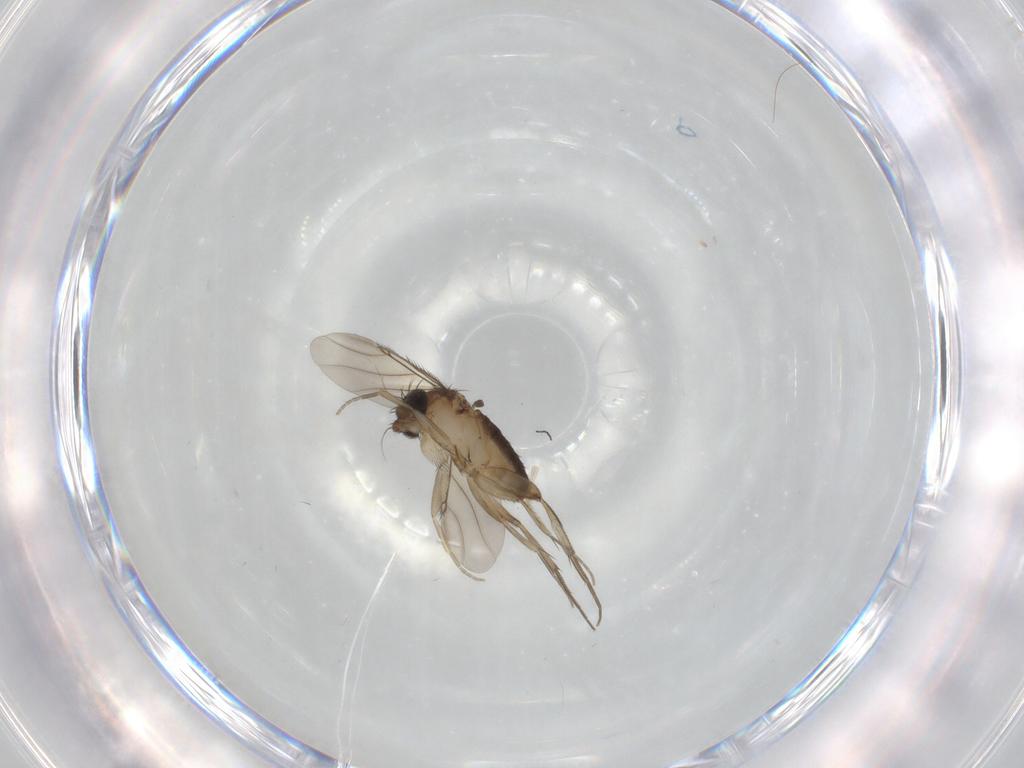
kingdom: Animalia
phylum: Arthropoda
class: Insecta
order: Diptera
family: Phoridae
